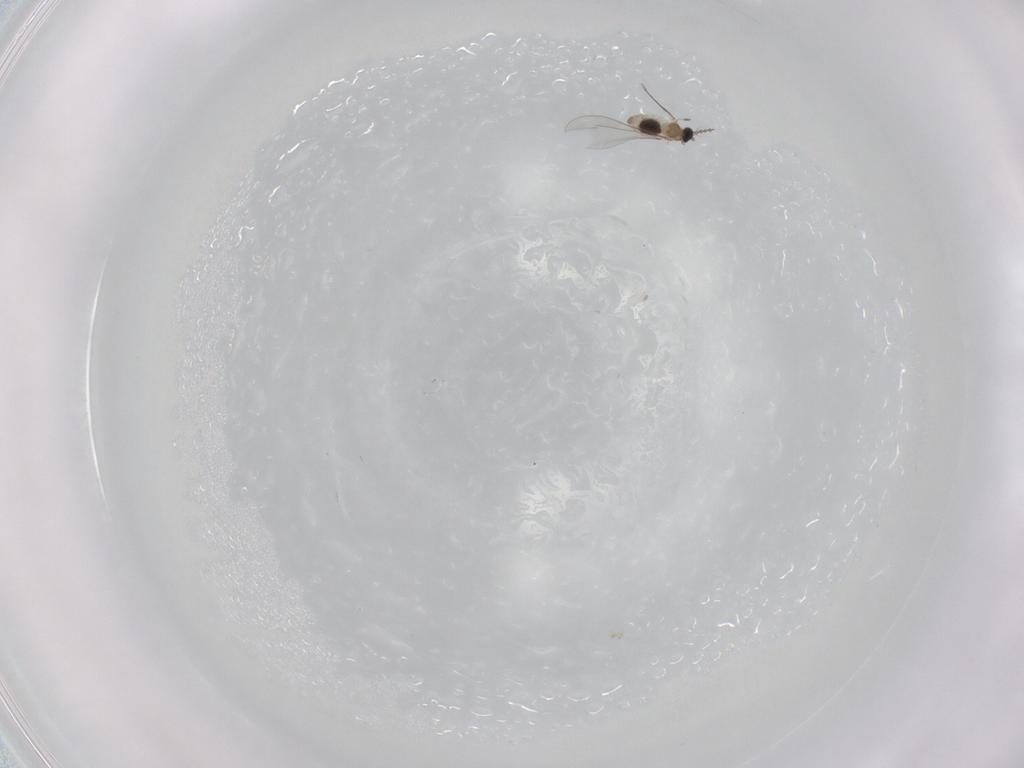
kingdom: Animalia
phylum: Arthropoda
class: Insecta
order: Diptera
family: Cecidomyiidae
